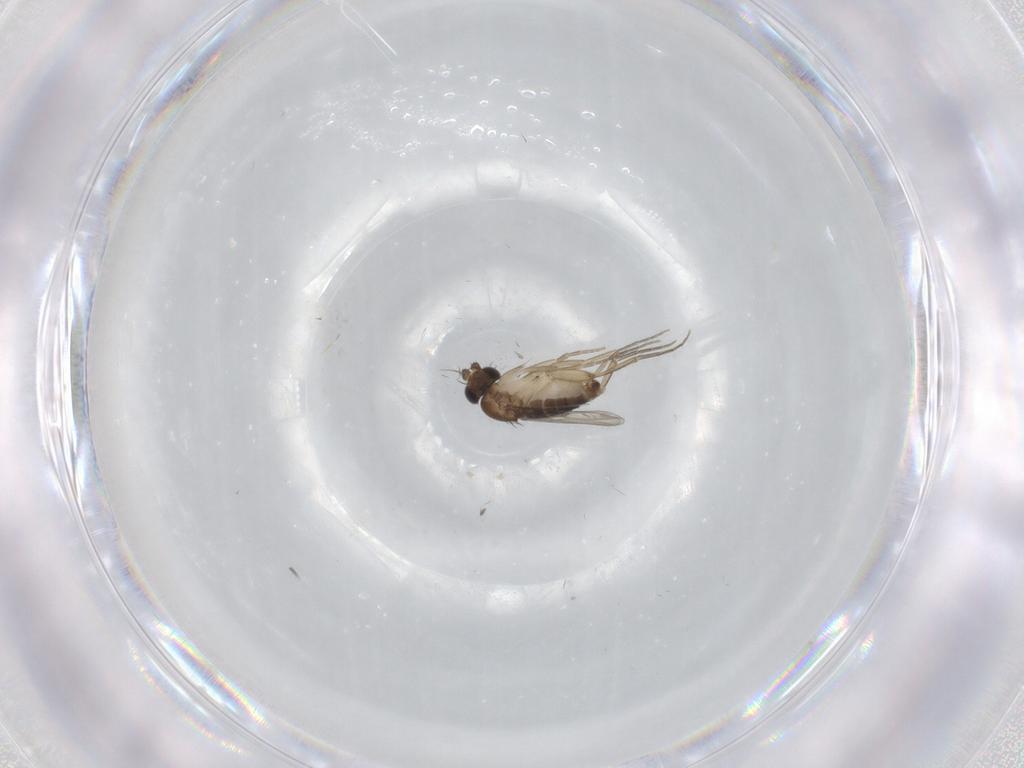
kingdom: Animalia
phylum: Arthropoda
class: Insecta
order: Diptera
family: Phoridae
